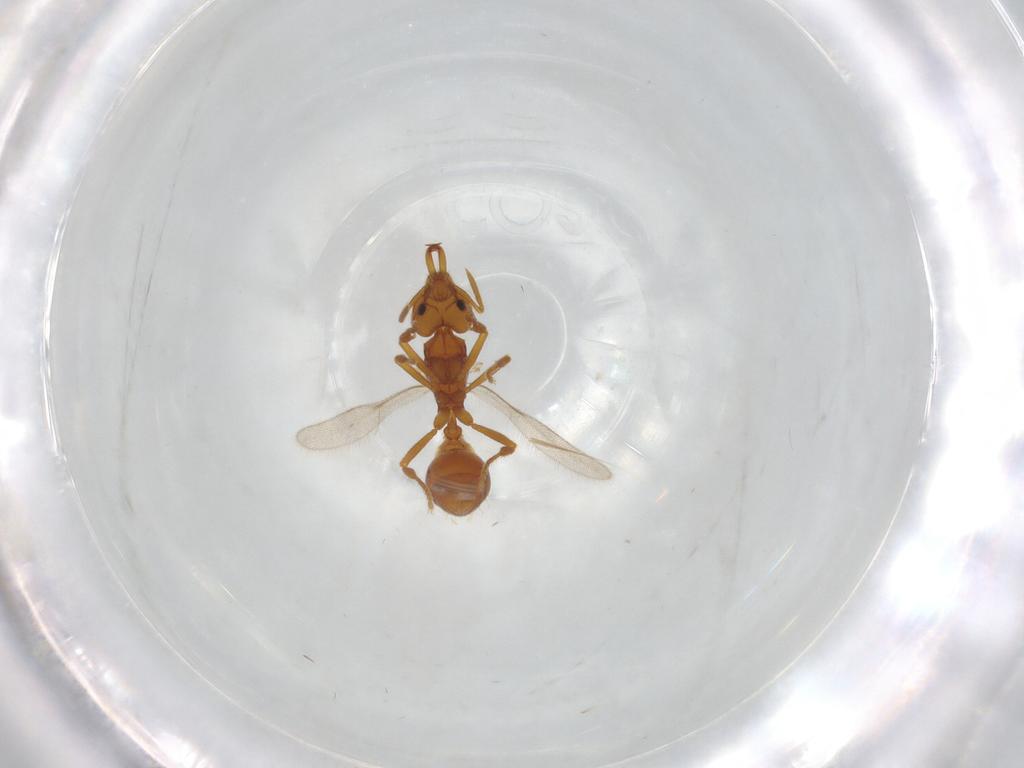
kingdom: Animalia
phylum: Arthropoda
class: Insecta
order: Hymenoptera
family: Formicidae
